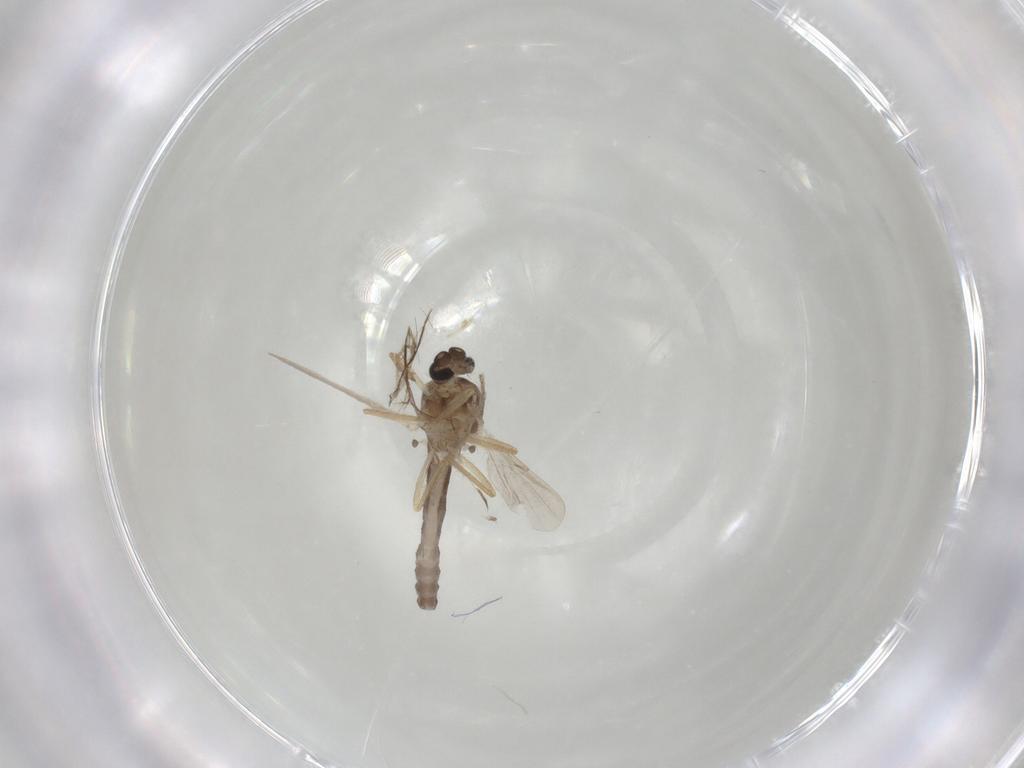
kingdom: Animalia
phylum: Arthropoda
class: Insecta
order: Diptera
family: Ceratopogonidae
